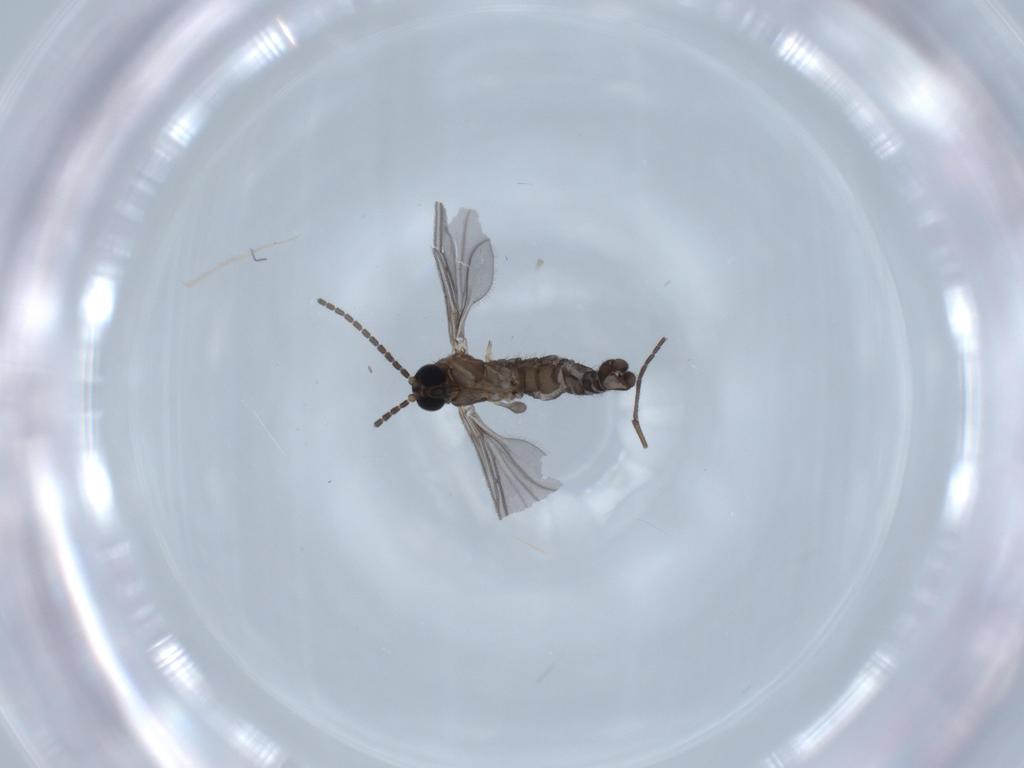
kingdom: Animalia
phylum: Arthropoda
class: Insecta
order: Diptera
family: Sciaridae
